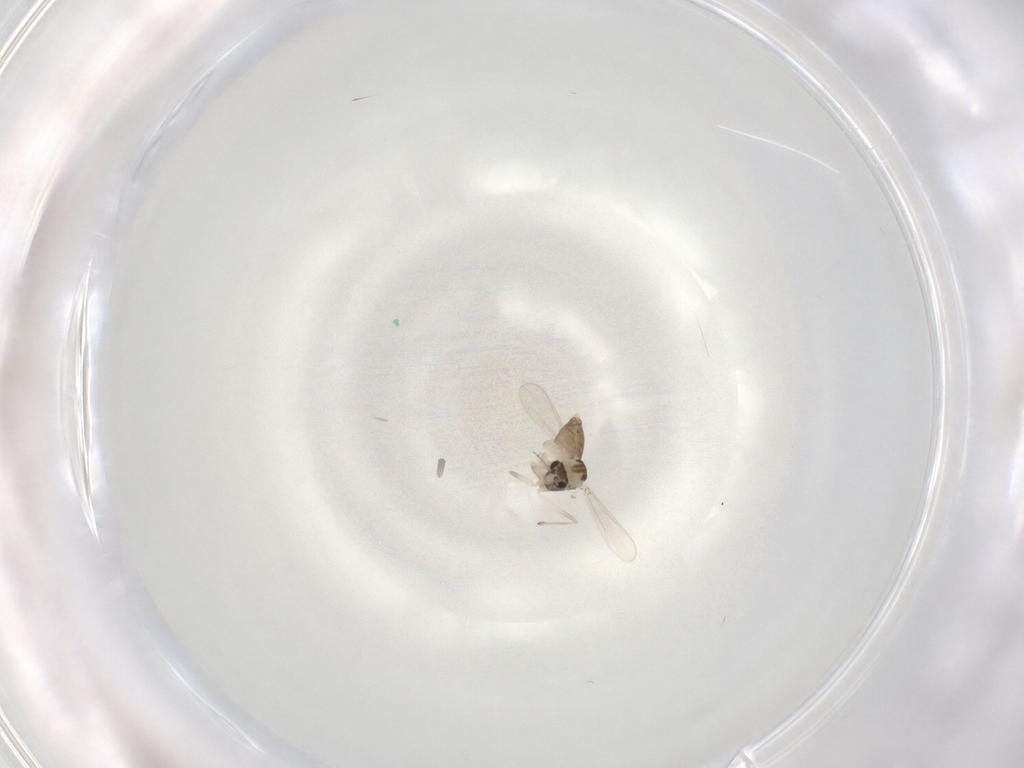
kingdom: Animalia
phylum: Arthropoda
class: Insecta
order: Diptera
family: Chironomidae
